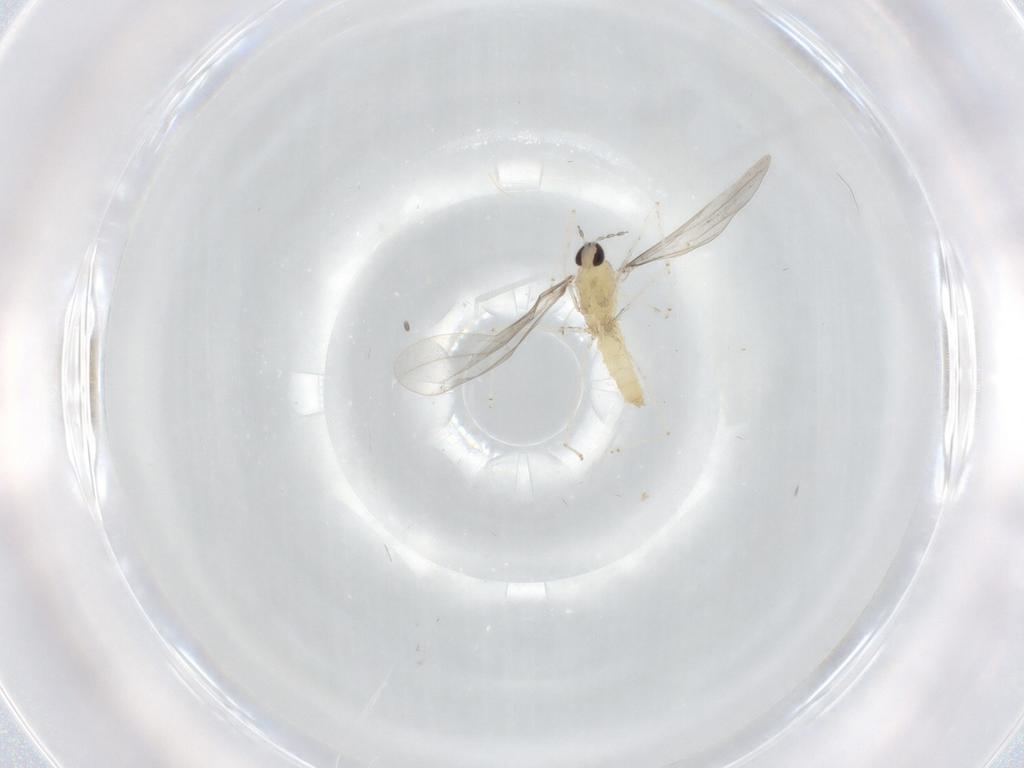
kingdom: Animalia
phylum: Arthropoda
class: Insecta
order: Diptera
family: Cecidomyiidae
